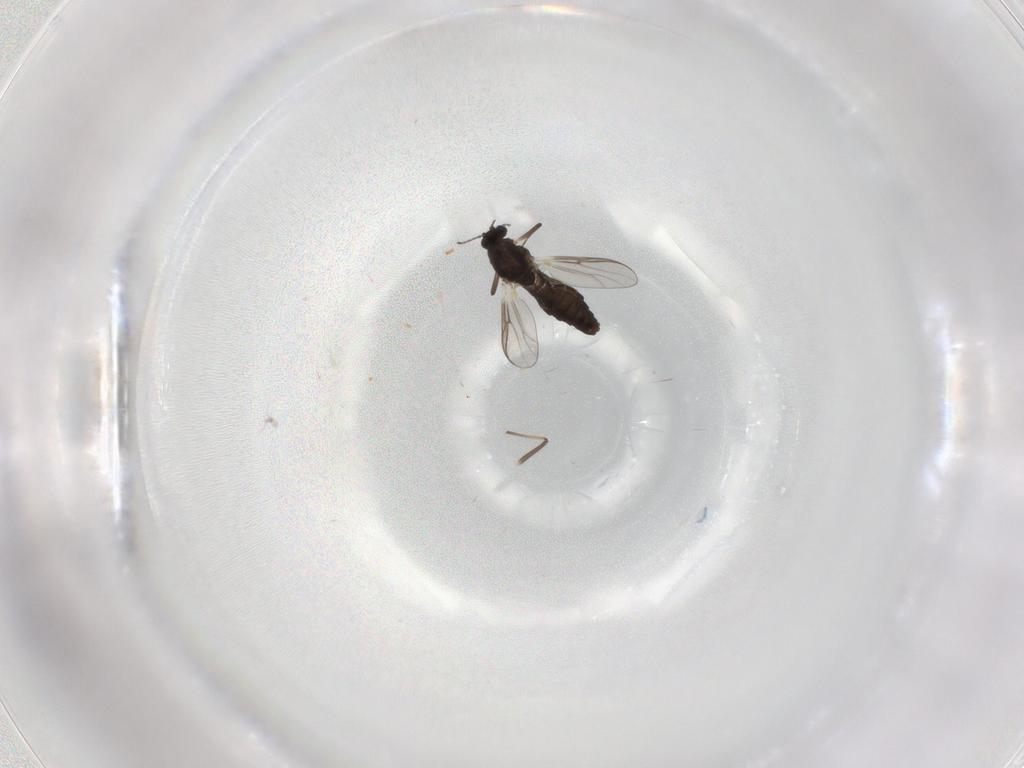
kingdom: Animalia
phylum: Arthropoda
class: Insecta
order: Diptera
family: Chironomidae
